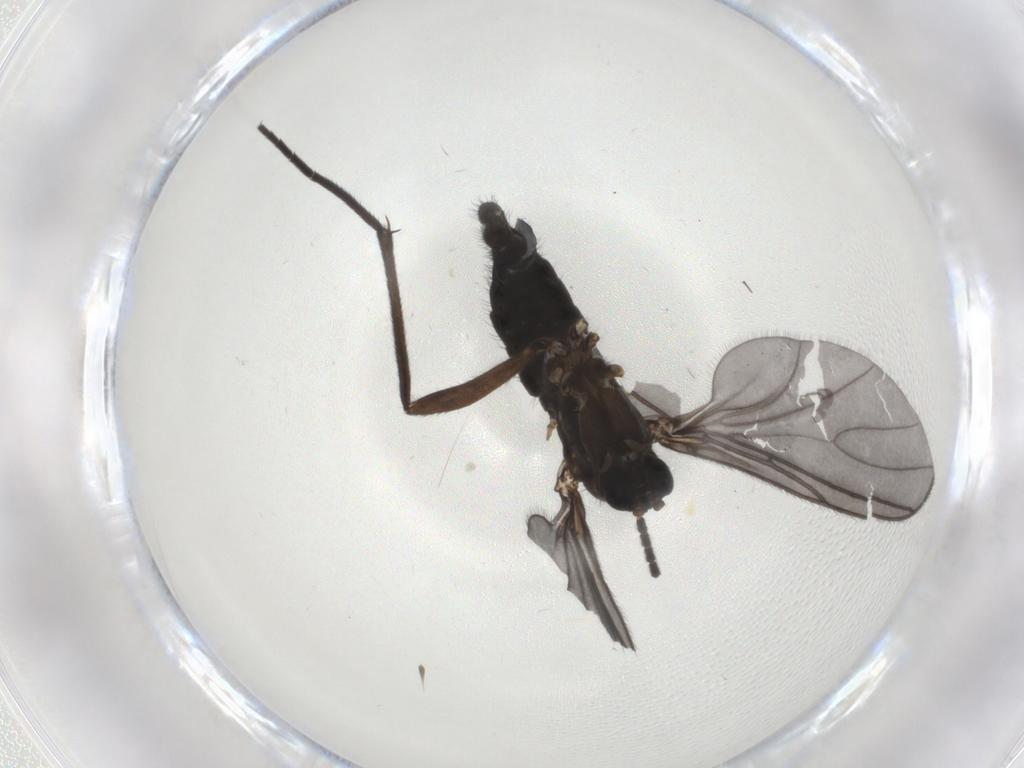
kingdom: Animalia
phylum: Arthropoda
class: Insecta
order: Diptera
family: Sciaridae
